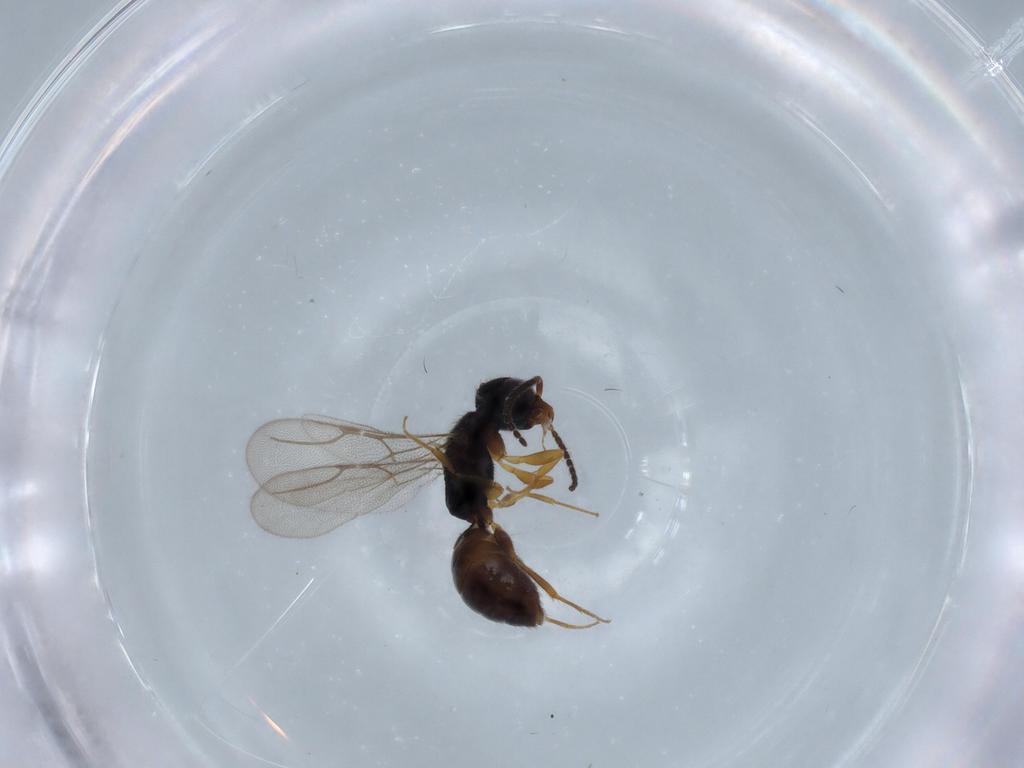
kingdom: Animalia
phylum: Arthropoda
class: Insecta
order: Hymenoptera
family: Bethylidae
